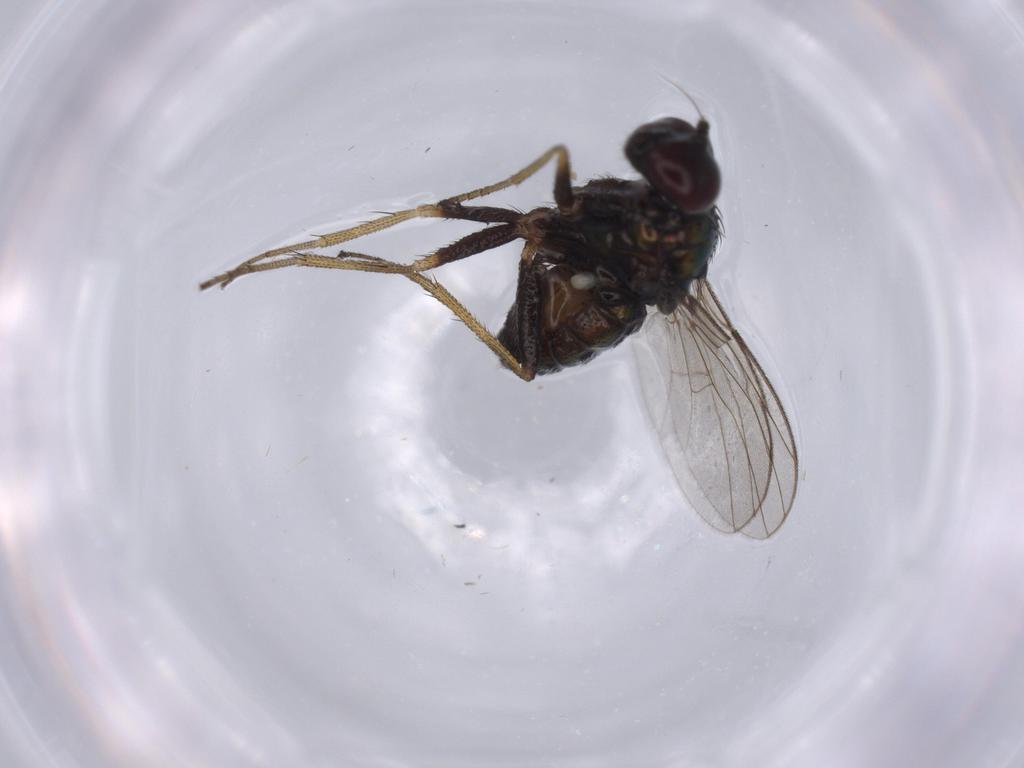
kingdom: Animalia
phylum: Arthropoda
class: Insecta
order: Diptera
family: Dolichopodidae
